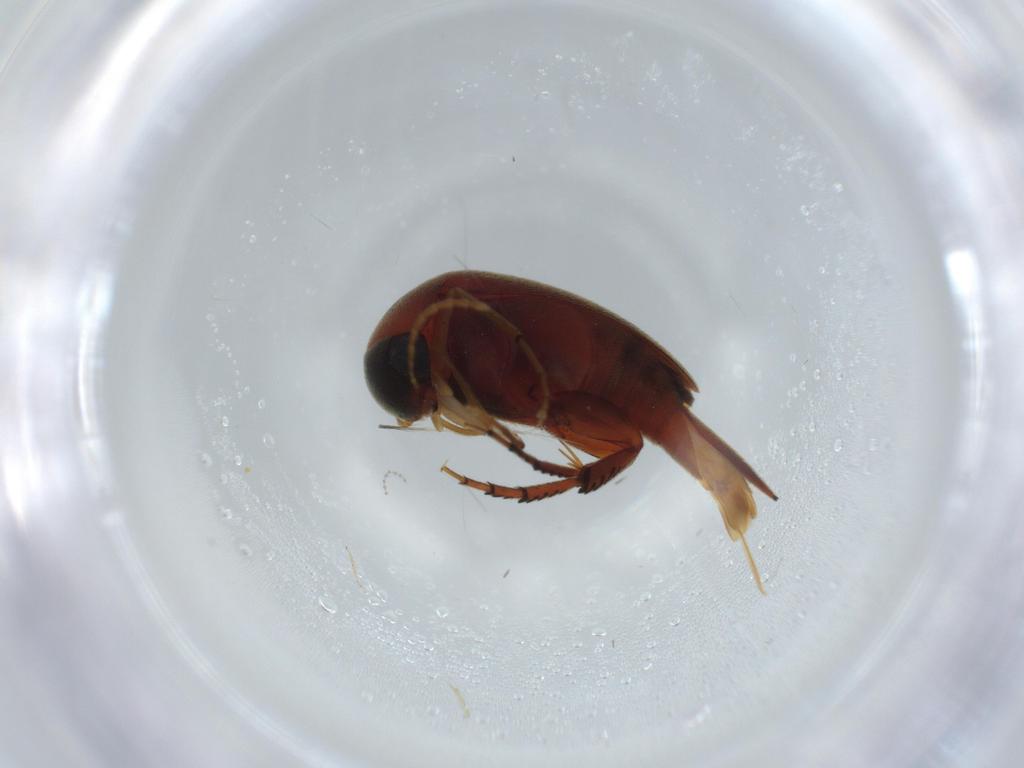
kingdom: Animalia
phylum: Arthropoda
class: Insecta
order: Coleoptera
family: Mordellidae
